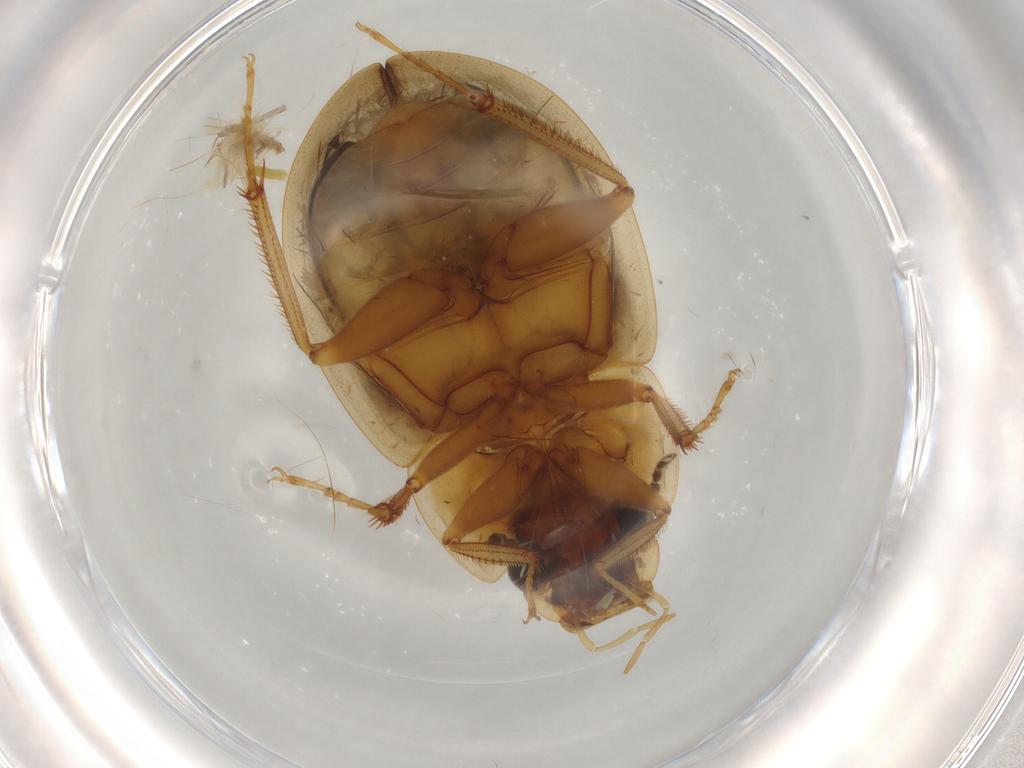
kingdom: Animalia
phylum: Arthropoda
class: Insecta
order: Coleoptera
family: Hydrophilidae
